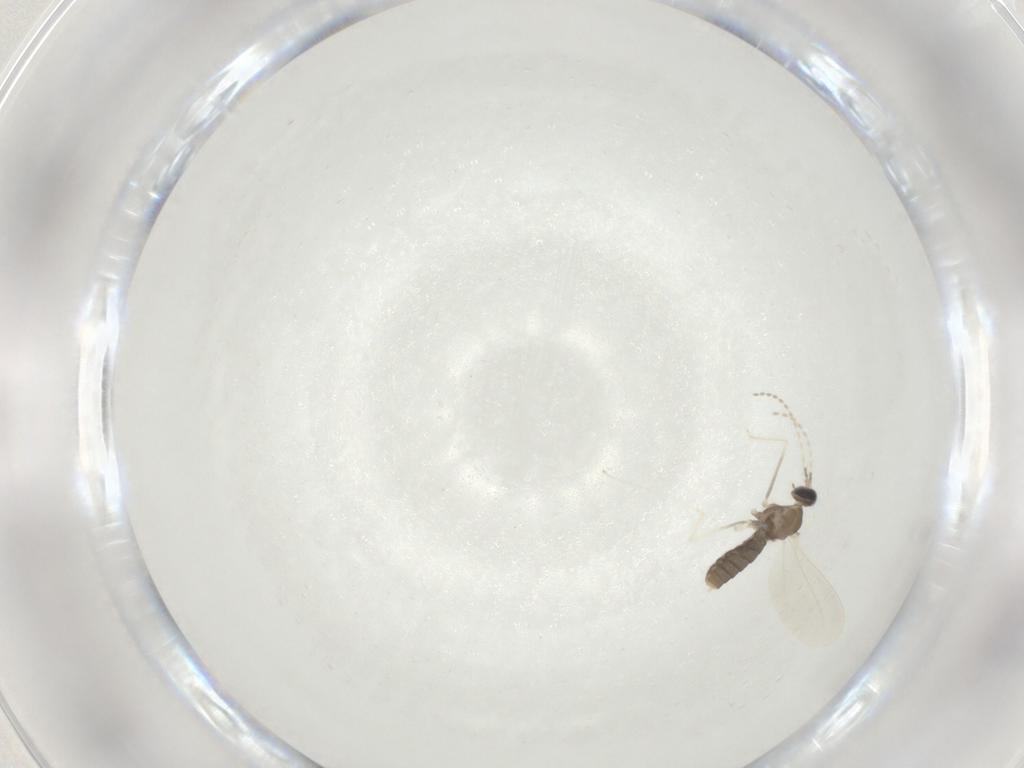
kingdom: Animalia
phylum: Arthropoda
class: Insecta
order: Diptera
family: Cecidomyiidae
